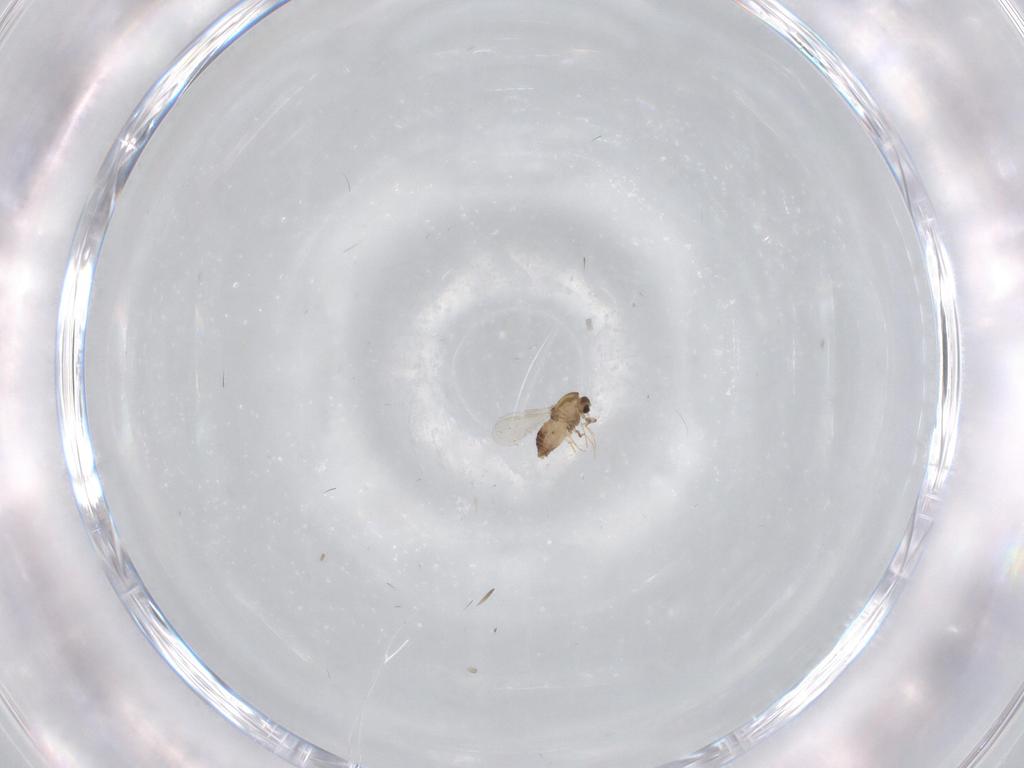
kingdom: Animalia
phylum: Arthropoda
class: Insecta
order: Diptera
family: Chironomidae
